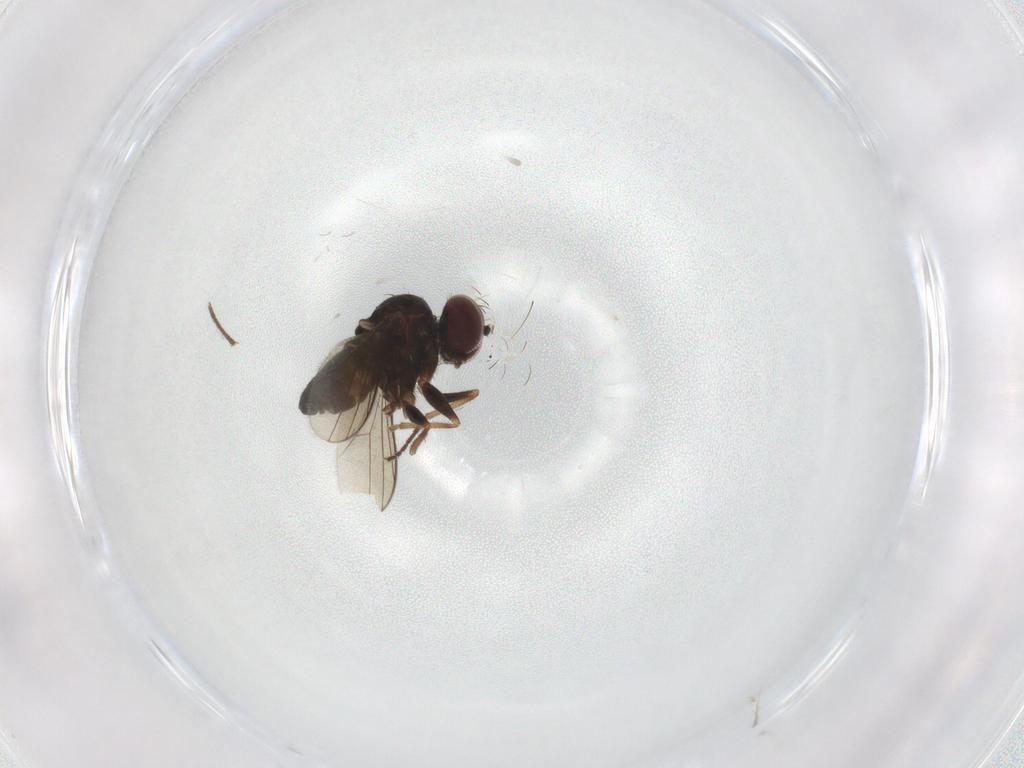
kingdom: Animalia
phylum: Arthropoda
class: Insecta
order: Diptera
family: Dolichopodidae
